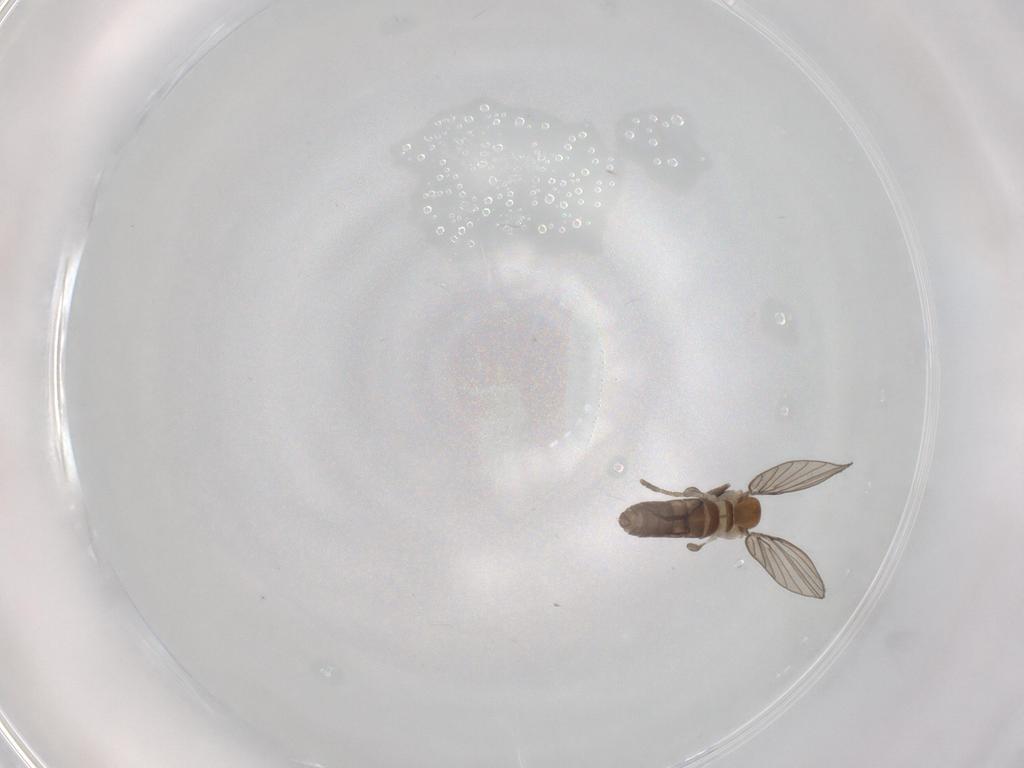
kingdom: Animalia
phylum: Arthropoda
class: Insecta
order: Diptera
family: Psychodidae
